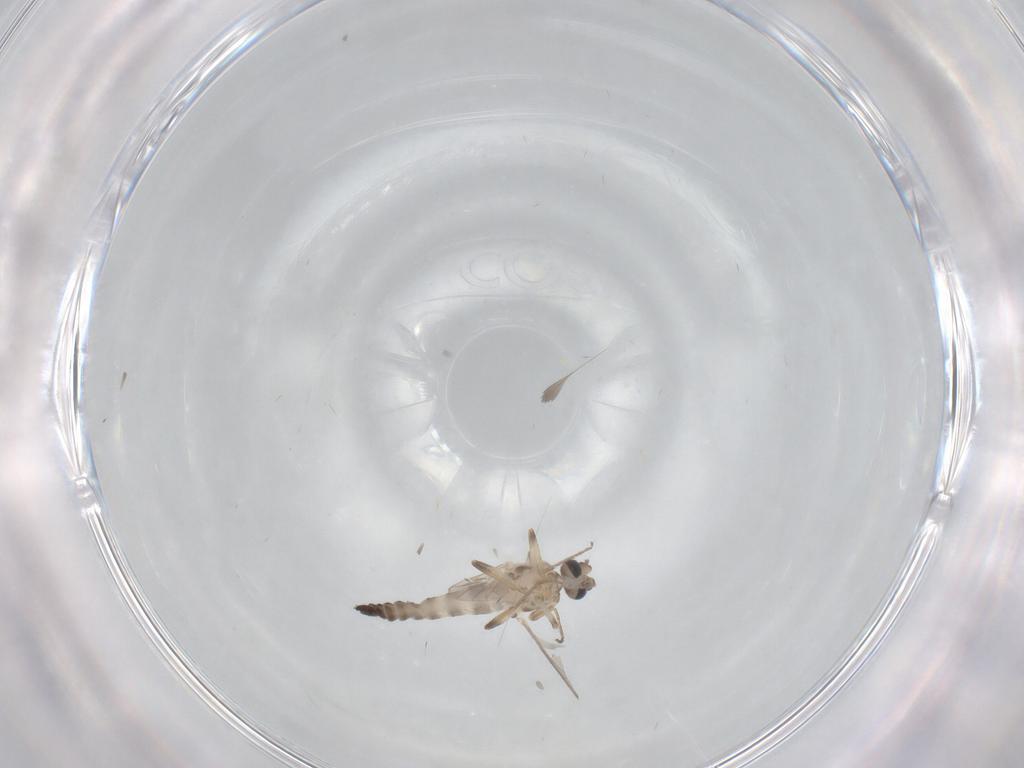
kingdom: Animalia
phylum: Arthropoda
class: Insecta
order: Diptera
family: Ceratopogonidae
